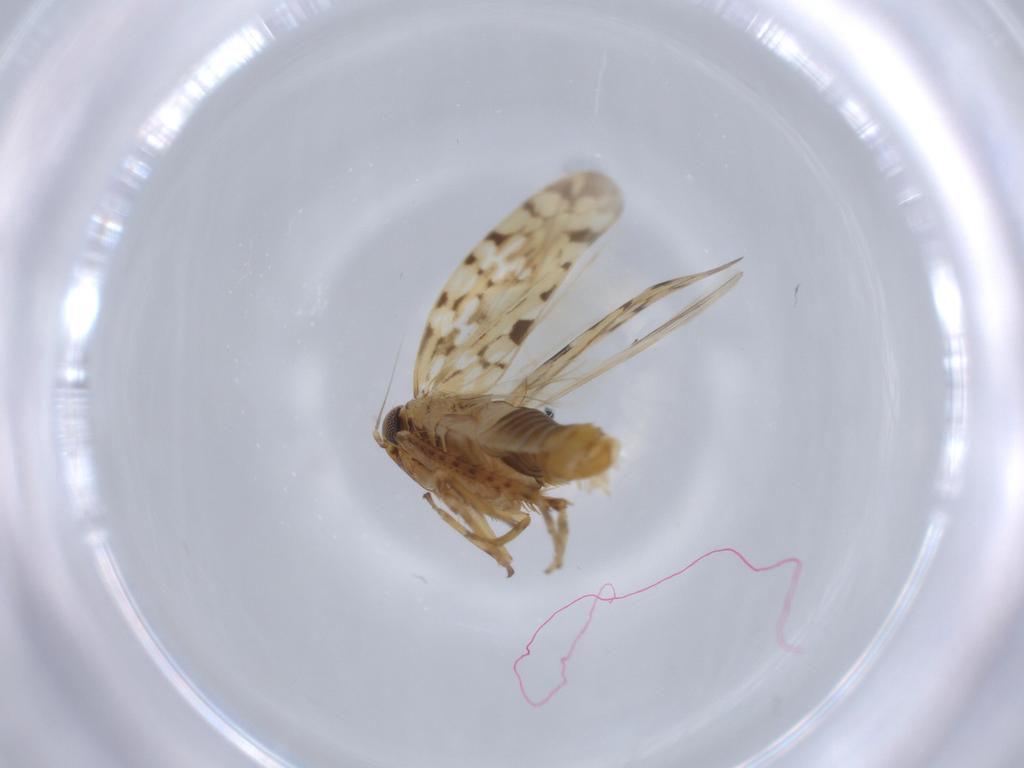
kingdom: Animalia
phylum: Arthropoda
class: Insecta
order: Hemiptera
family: Cicadellidae
